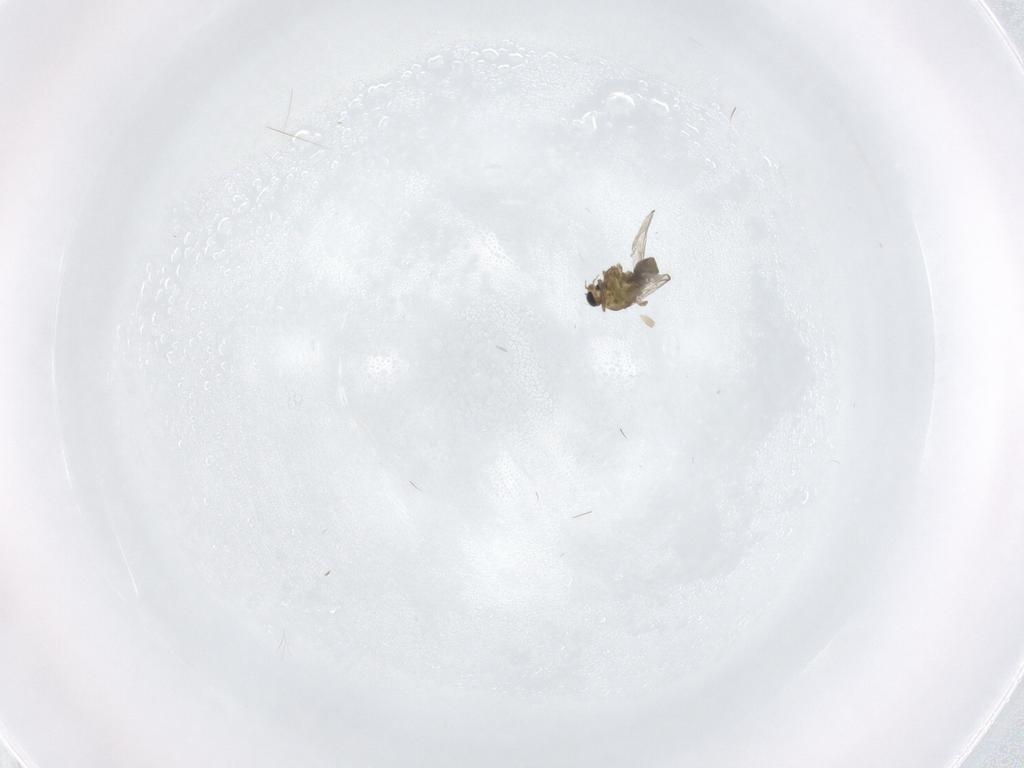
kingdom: Animalia
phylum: Arthropoda
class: Insecta
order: Diptera
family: Chironomidae
